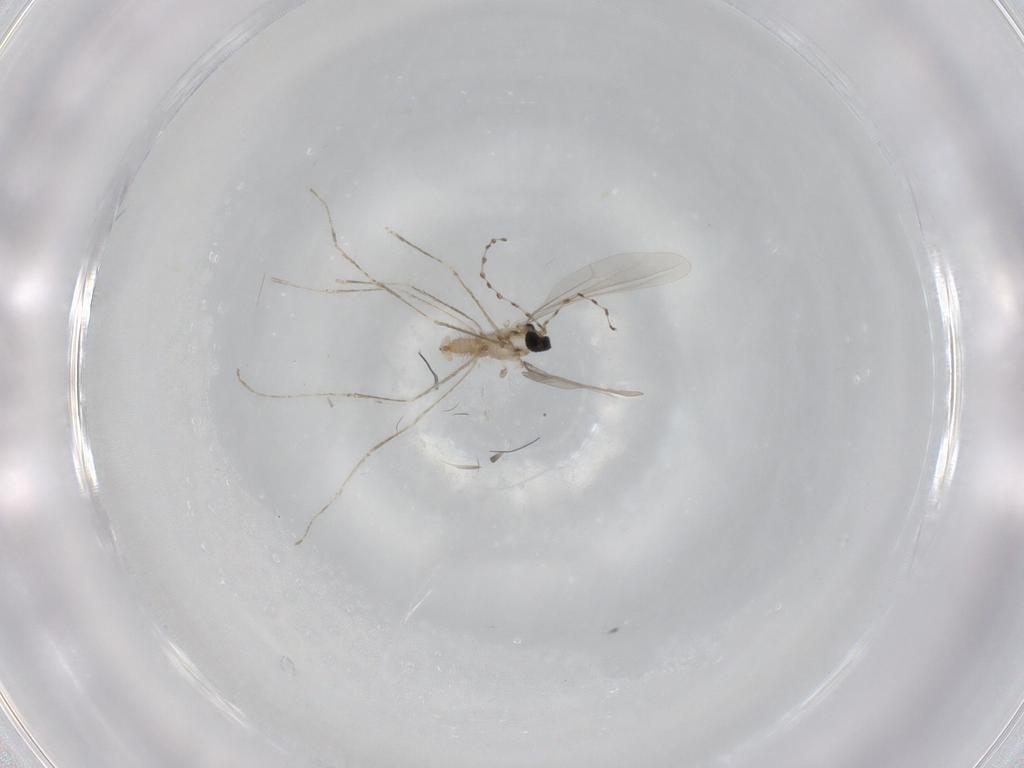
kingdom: Animalia
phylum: Arthropoda
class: Insecta
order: Diptera
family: Cecidomyiidae
